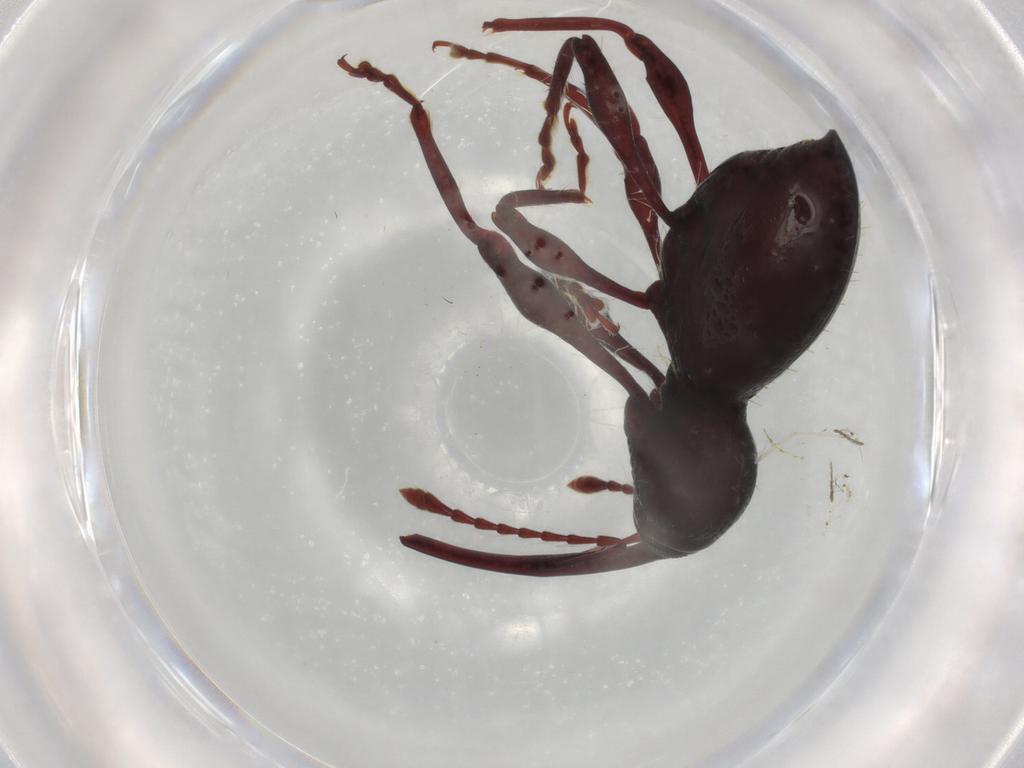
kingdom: Animalia
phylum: Arthropoda
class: Insecta
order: Coleoptera
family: Curculionidae
